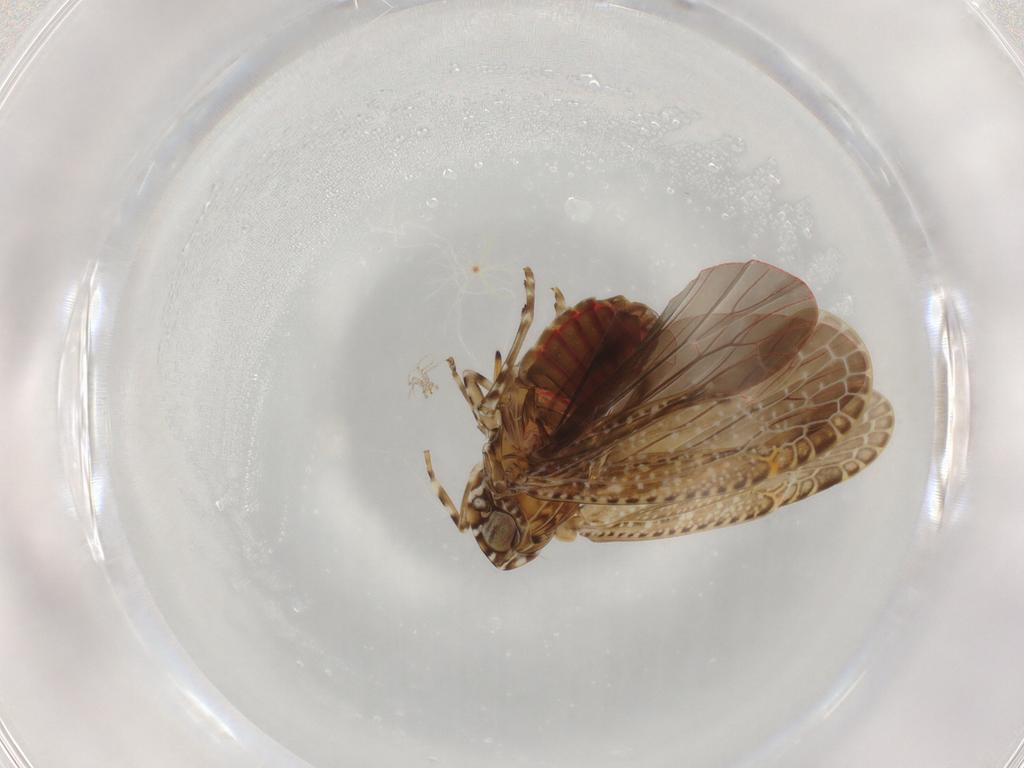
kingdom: Animalia
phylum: Arthropoda
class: Insecta
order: Hemiptera
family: Achilidae
